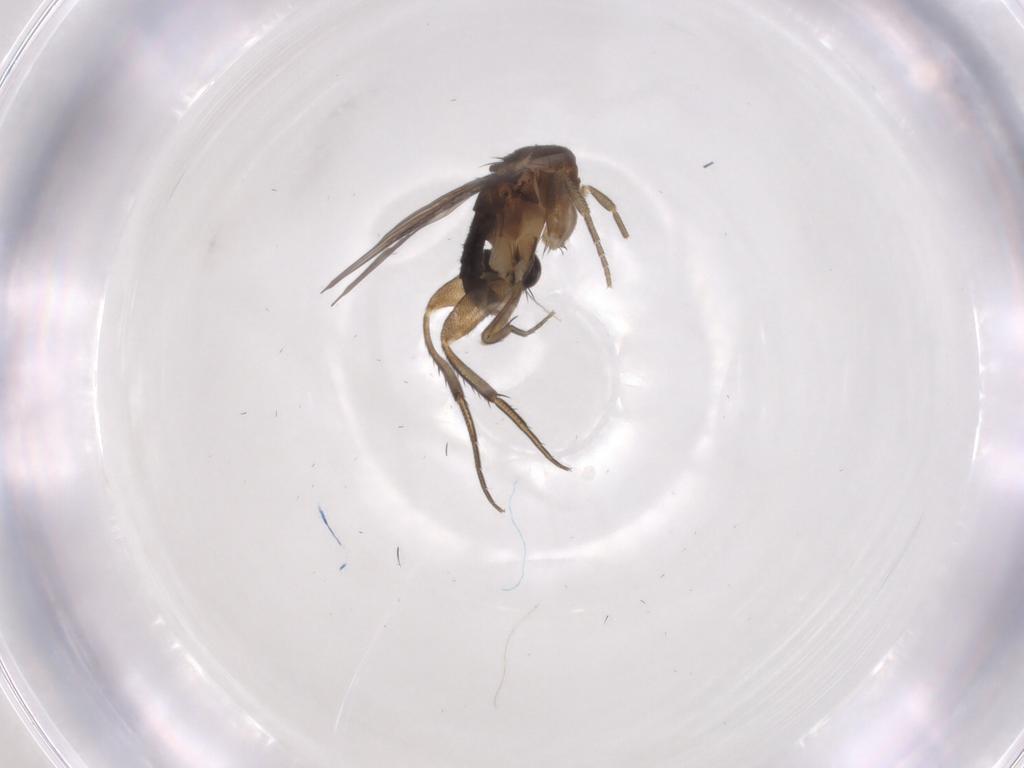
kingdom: Animalia
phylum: Arthropoda
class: Insecta
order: Diptera
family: Phoridae
